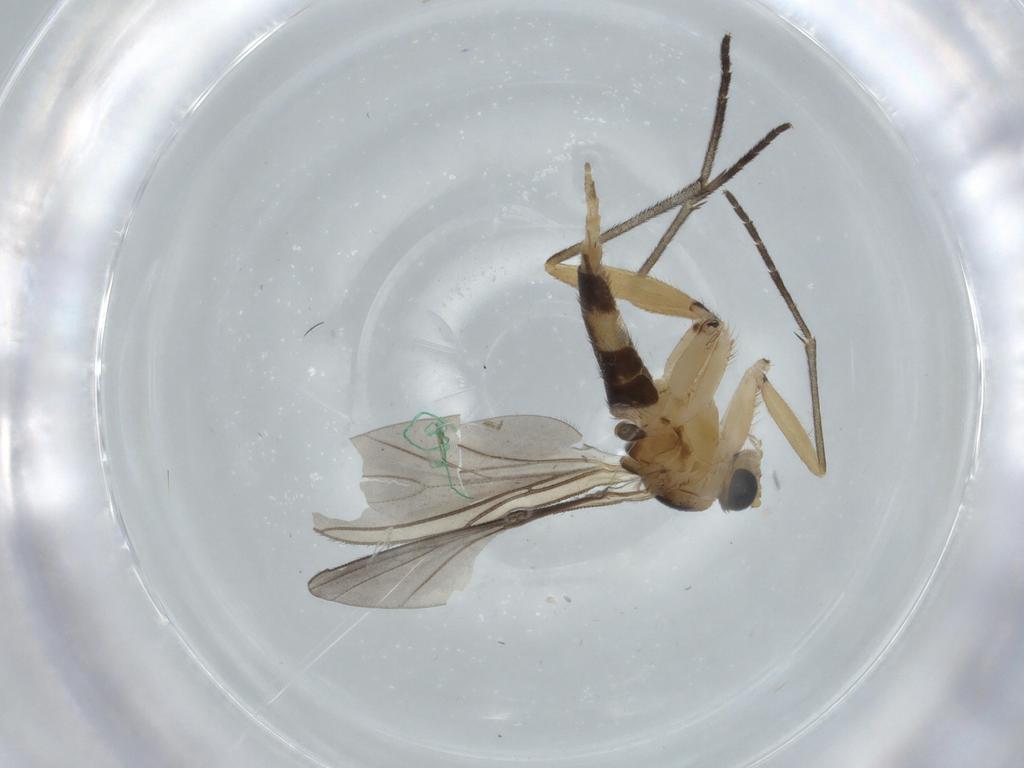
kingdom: Animalia
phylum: Arthropoda
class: Insecta
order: Diptera
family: Sciaridae
